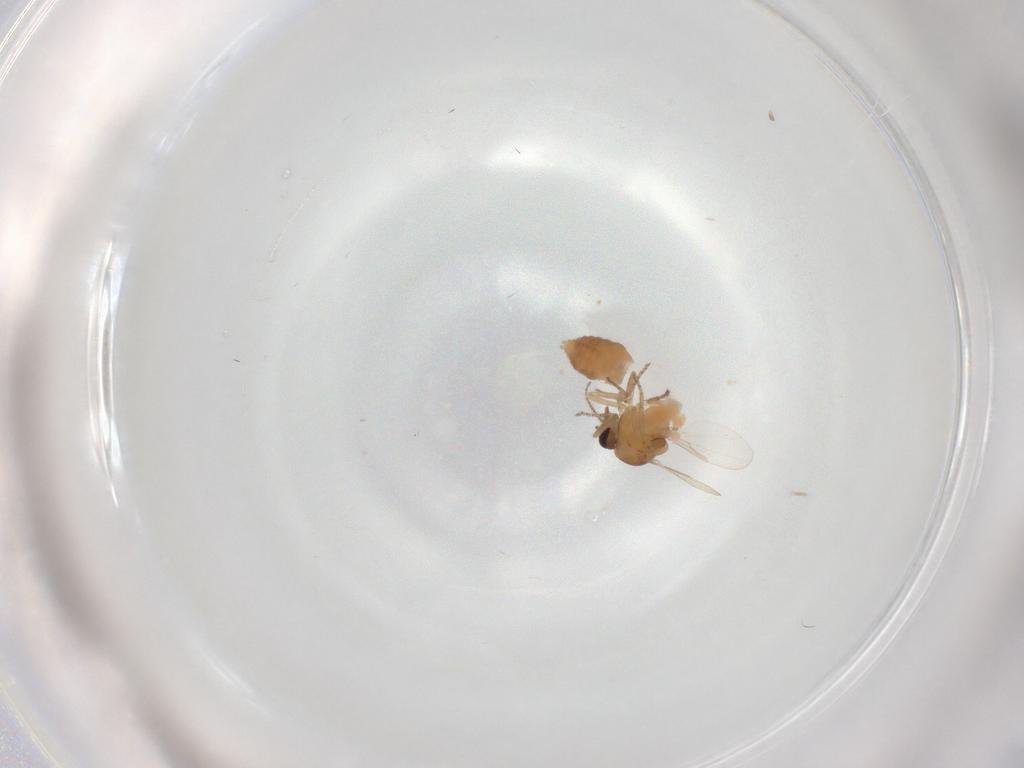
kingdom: Animalia
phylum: Arthropoda
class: Insecta
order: Diptera
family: Ceratopogonidae
